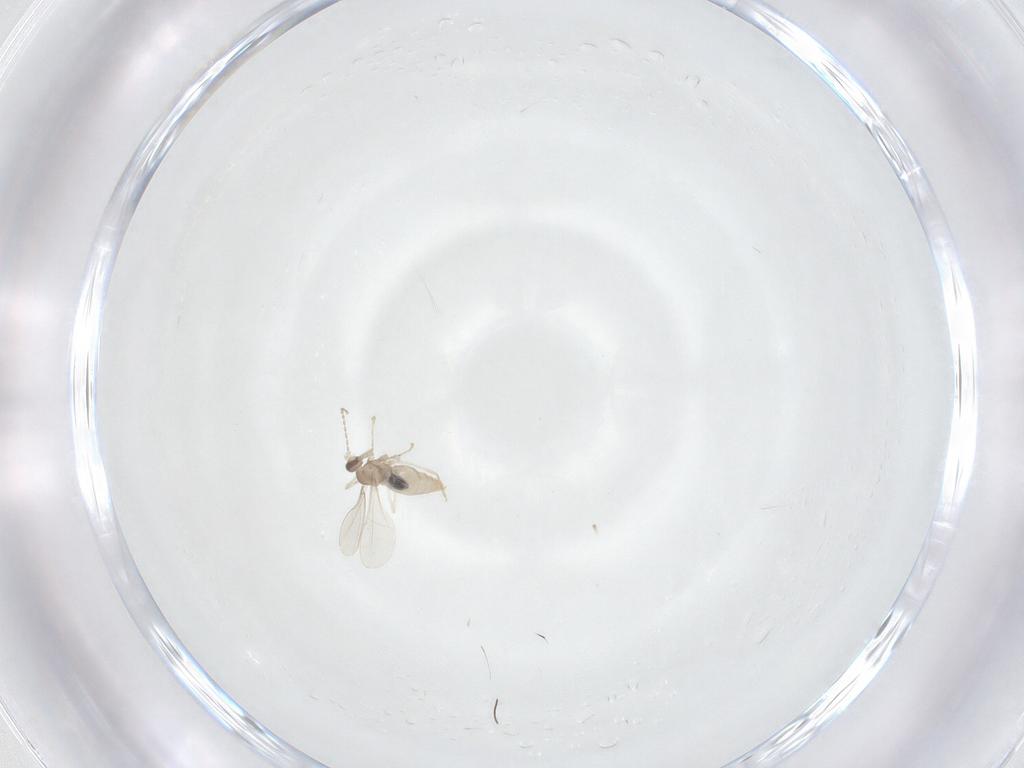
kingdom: Animalia
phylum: Arthropoda
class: Insecta
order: Diptera
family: Chironomidae
